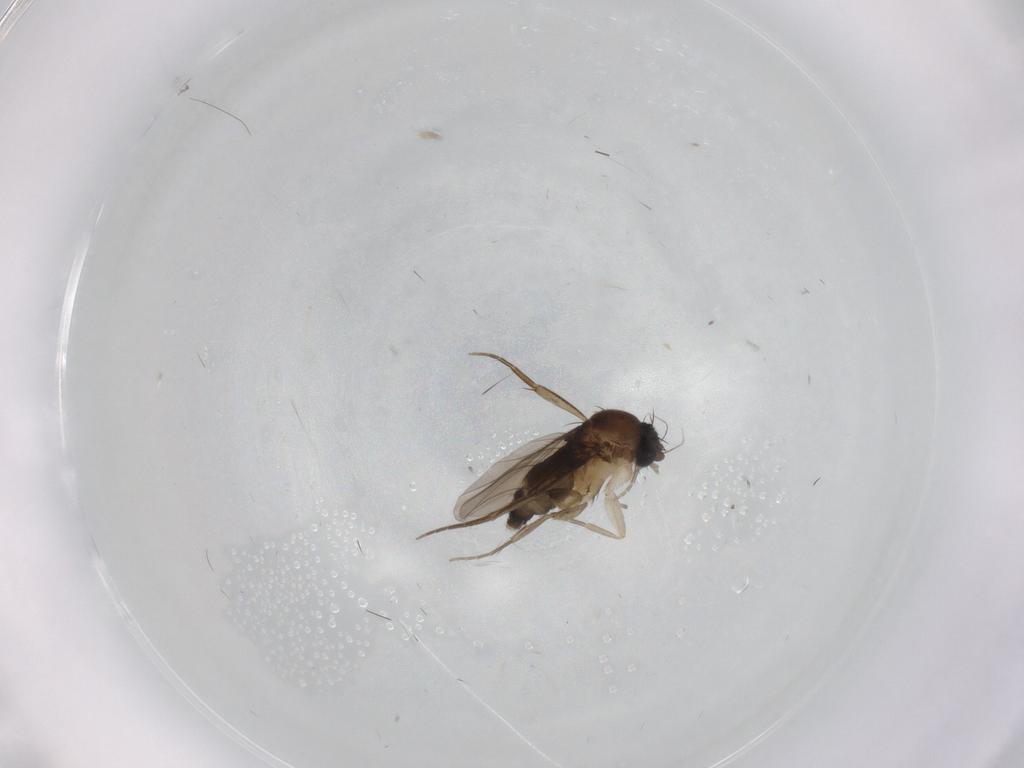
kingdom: Animalia
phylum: Arthropoda
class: Insecta
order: Diptera
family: Phoridae
